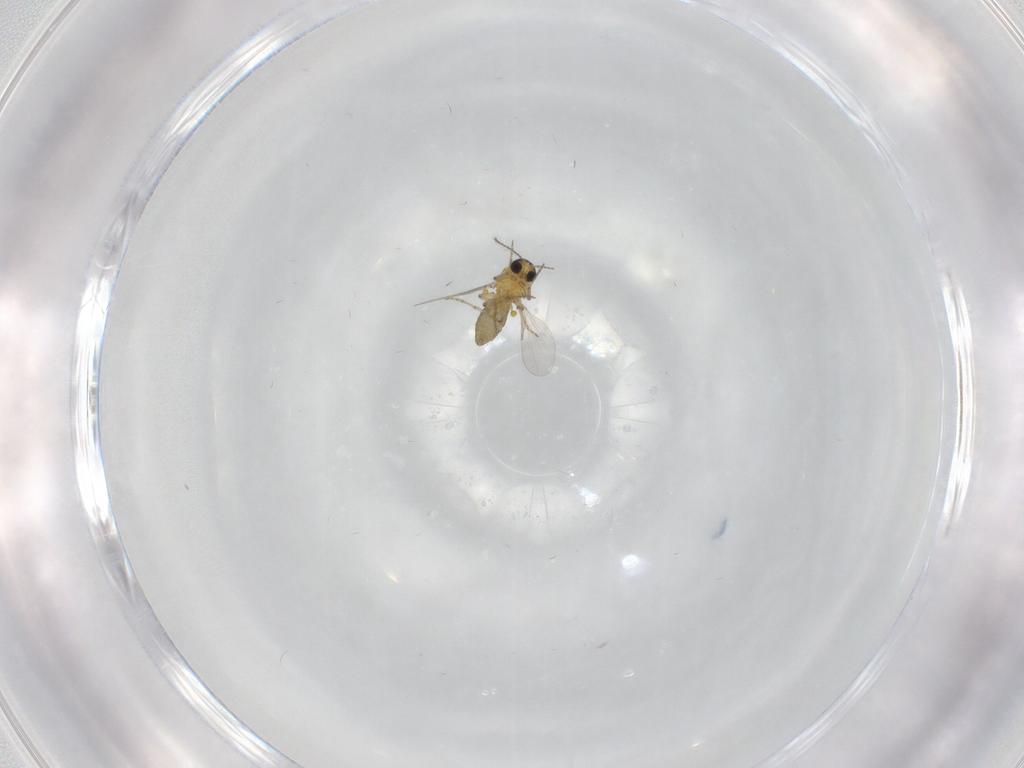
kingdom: Animalia
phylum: Arthropoda
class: Insecta
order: Diptera
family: Ceratopogonidae
